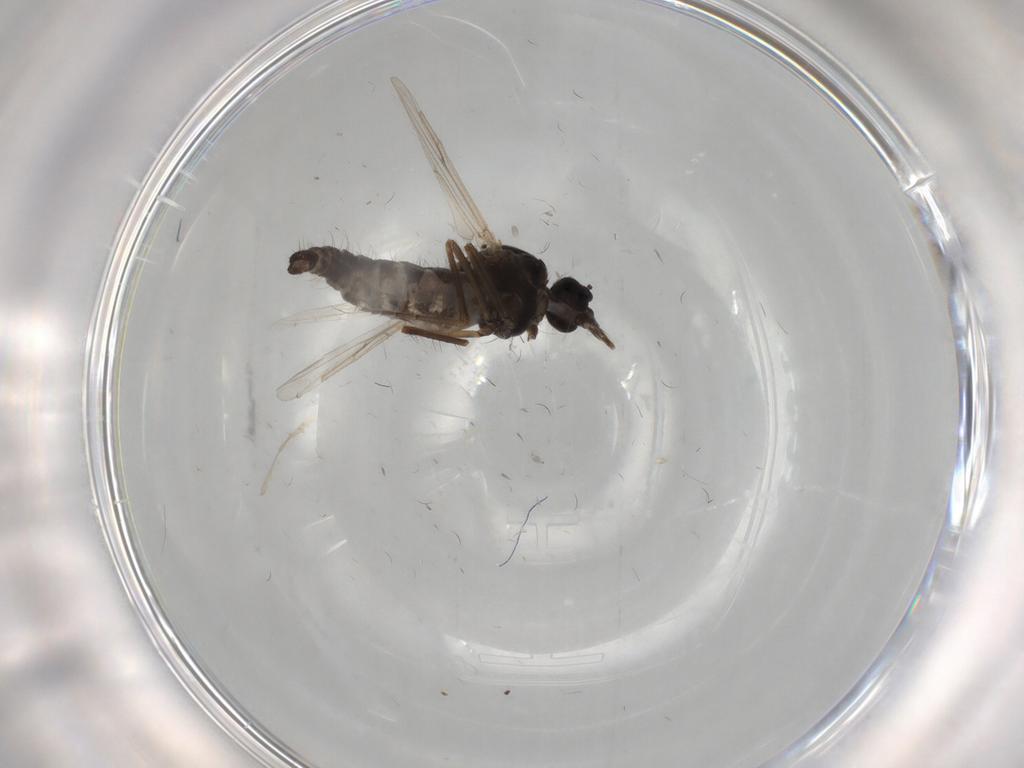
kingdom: Animalia
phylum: Arthropoda
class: Insecta
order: Diptera
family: Ceratopogonidae
